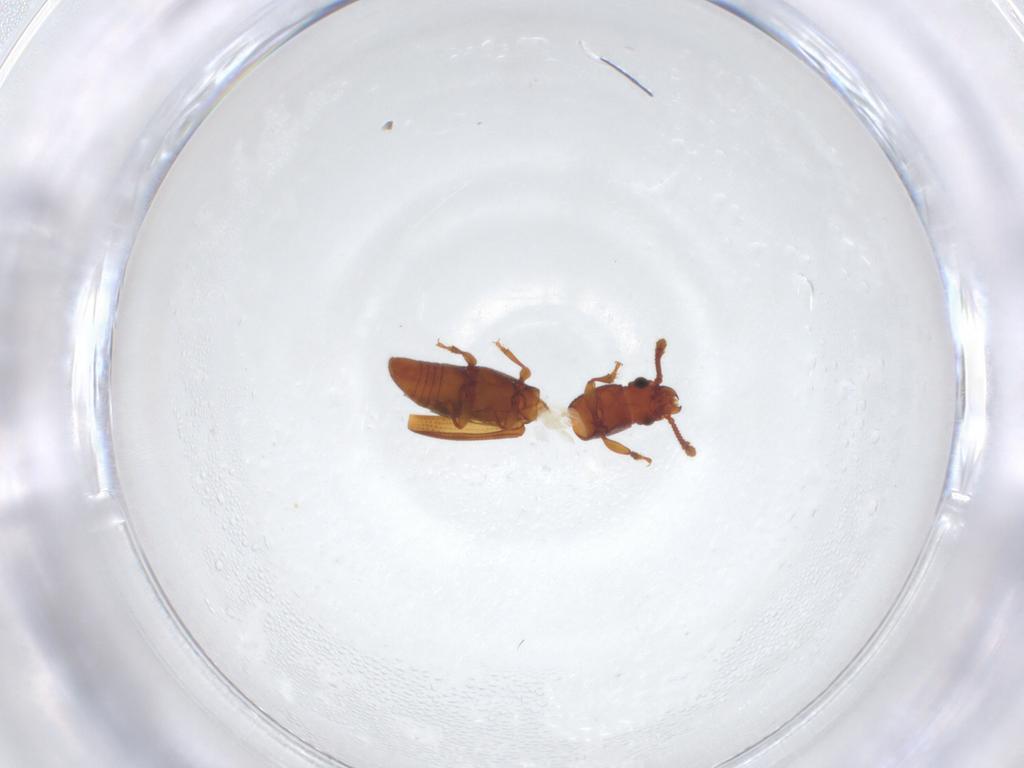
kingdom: Animalia
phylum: Arthropoda
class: Insecta
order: Coleoptera
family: Monotomidae
